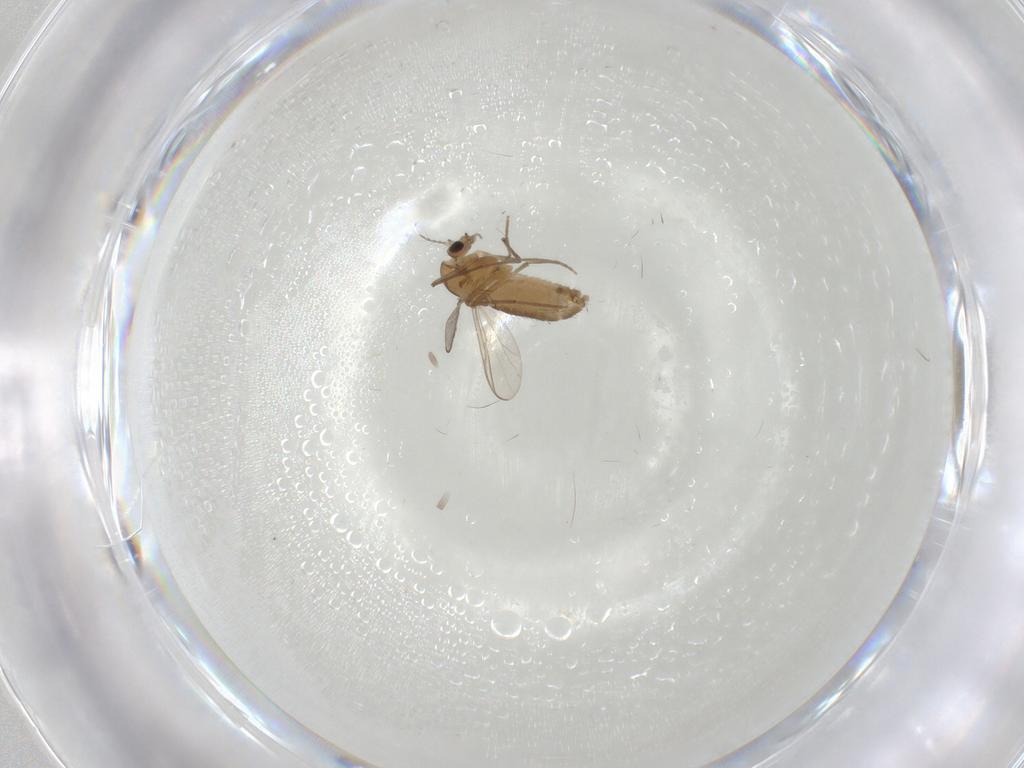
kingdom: Animalia
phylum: Arthropoda
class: Insecta
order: Diptera
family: Chironomidae
